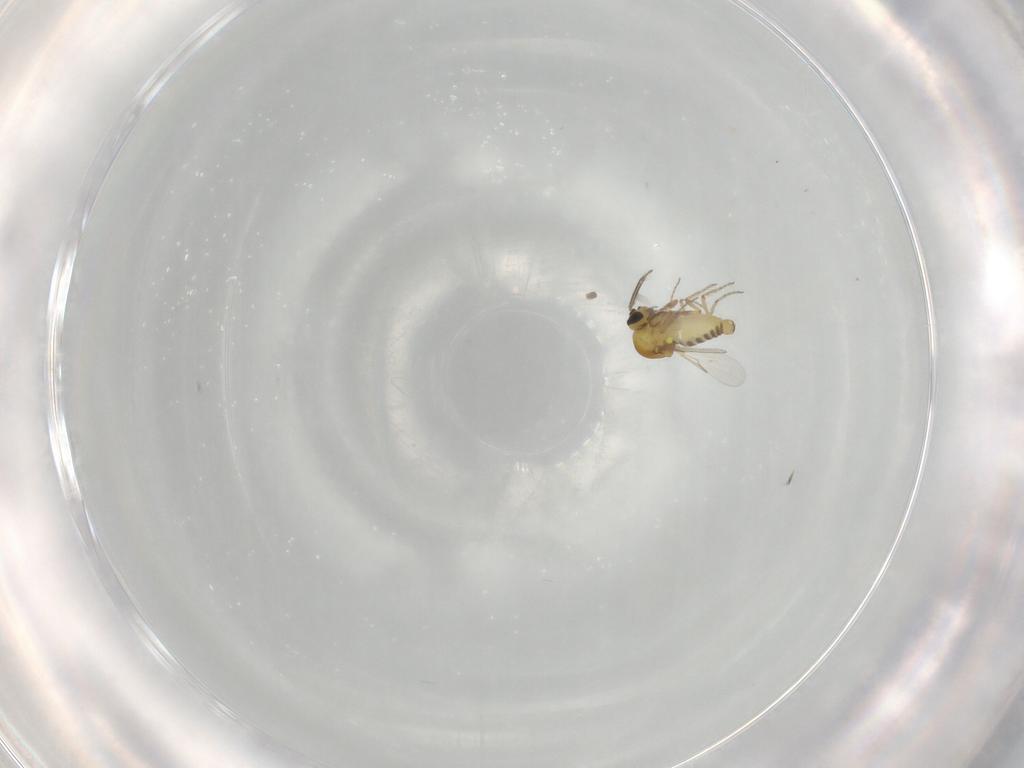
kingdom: Animalia
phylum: Arthropoda
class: Insecta
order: Diptera
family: Ceratopogonidae
